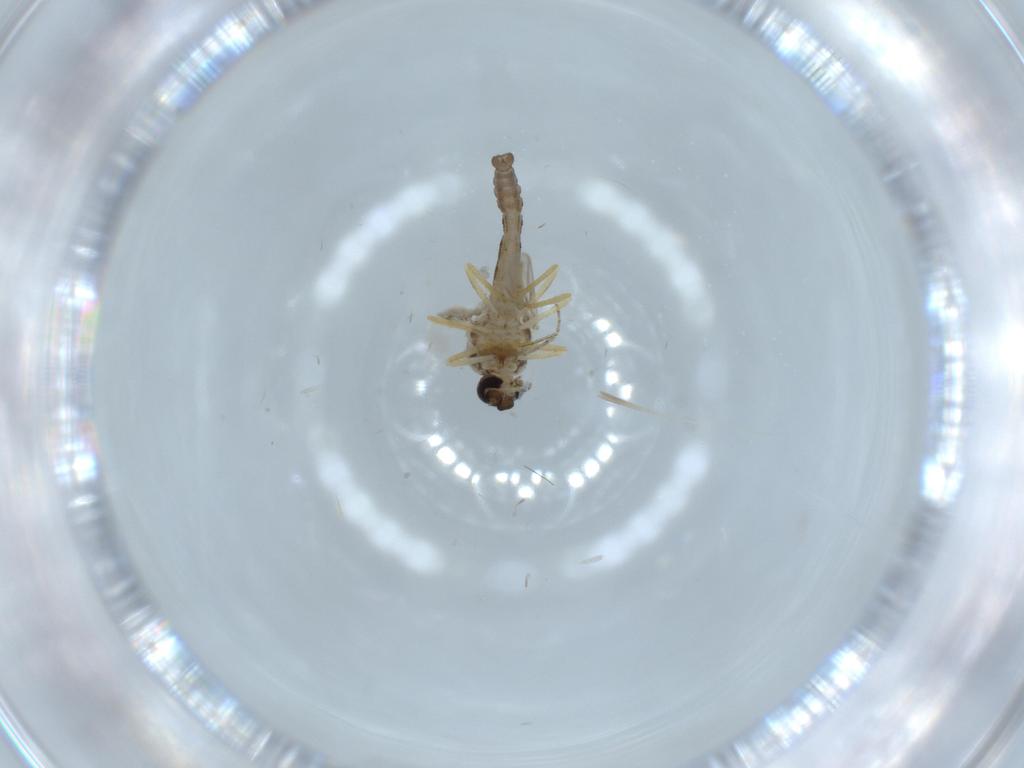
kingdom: Animalia
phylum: Arthropoda
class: Insecta
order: Diptera
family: Ceratopogonidae
